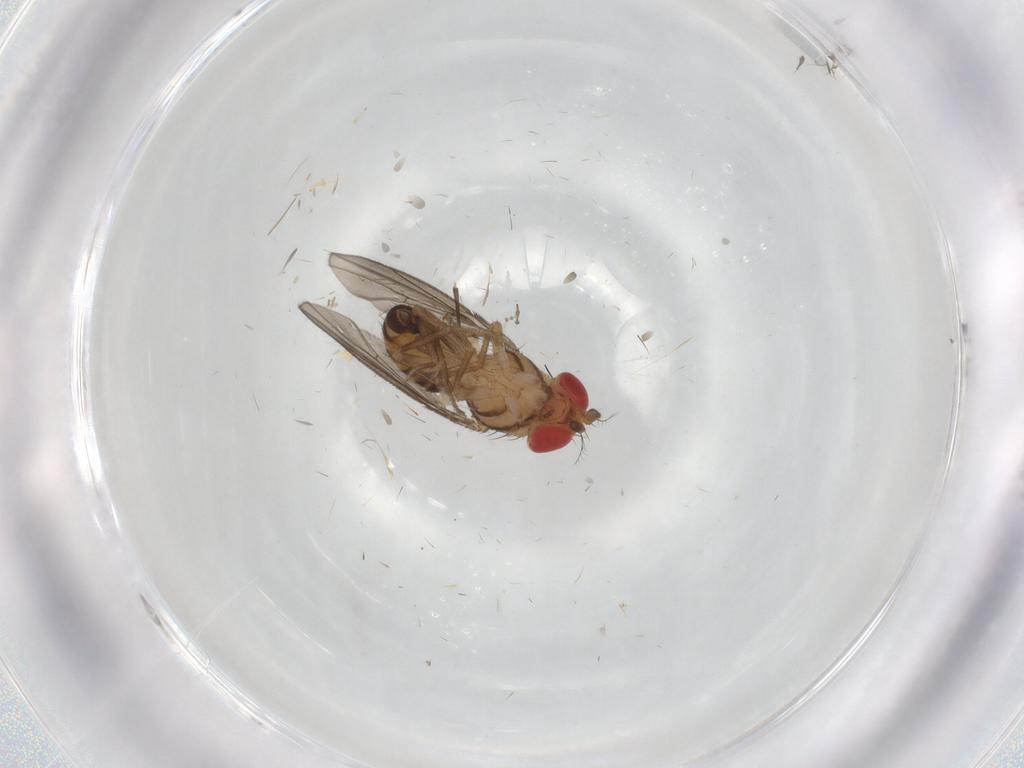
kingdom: Animalia
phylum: Arthropoda
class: Insecta
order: Diptera
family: Drosophilidae
